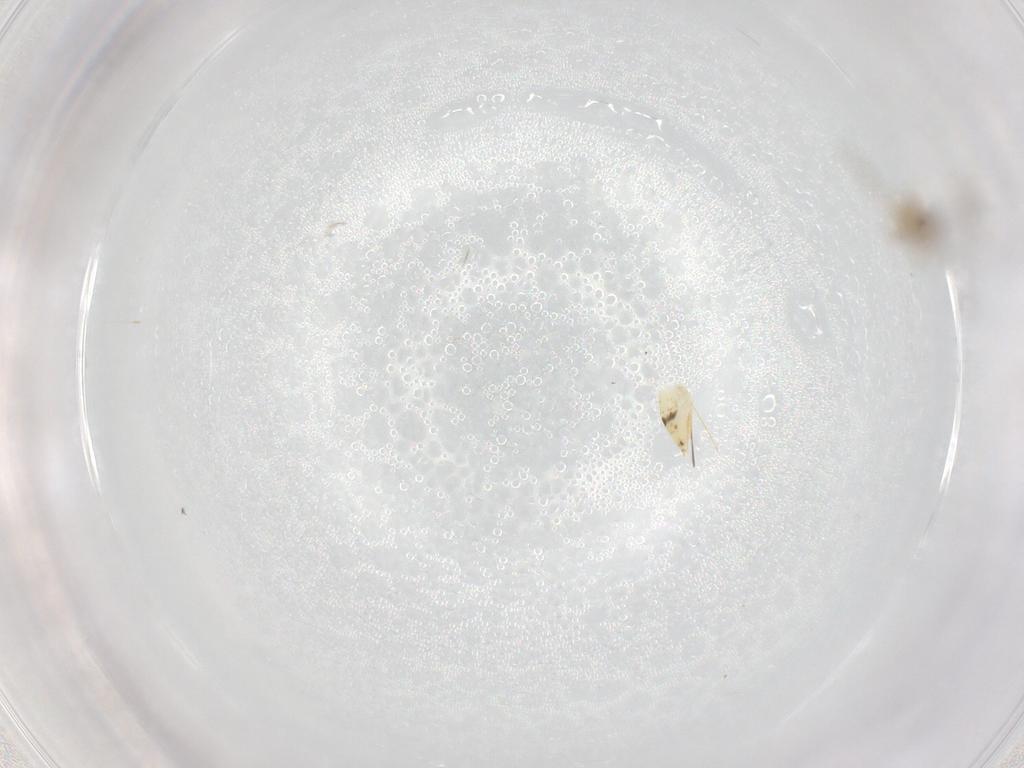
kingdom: Animalia
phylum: Arthropoda
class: Insecta
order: Hymenoptera
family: Mymaridae
